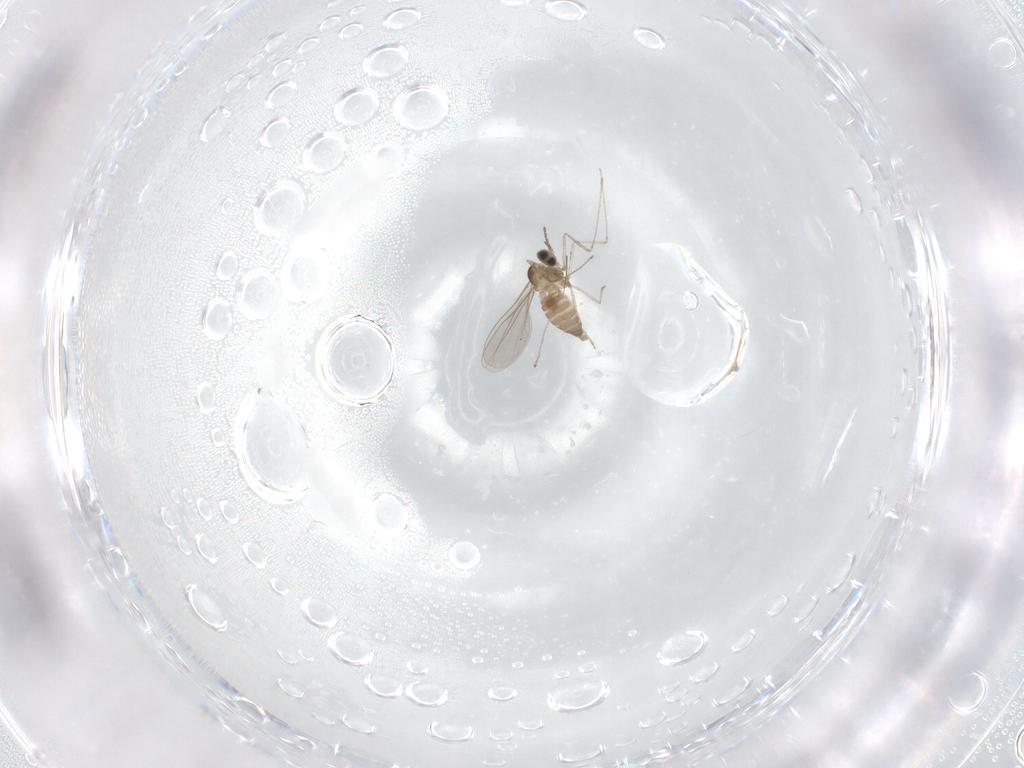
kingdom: Animalia
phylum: Arthropoda
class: Insecta
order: Diptera
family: Cecidomyiidae
